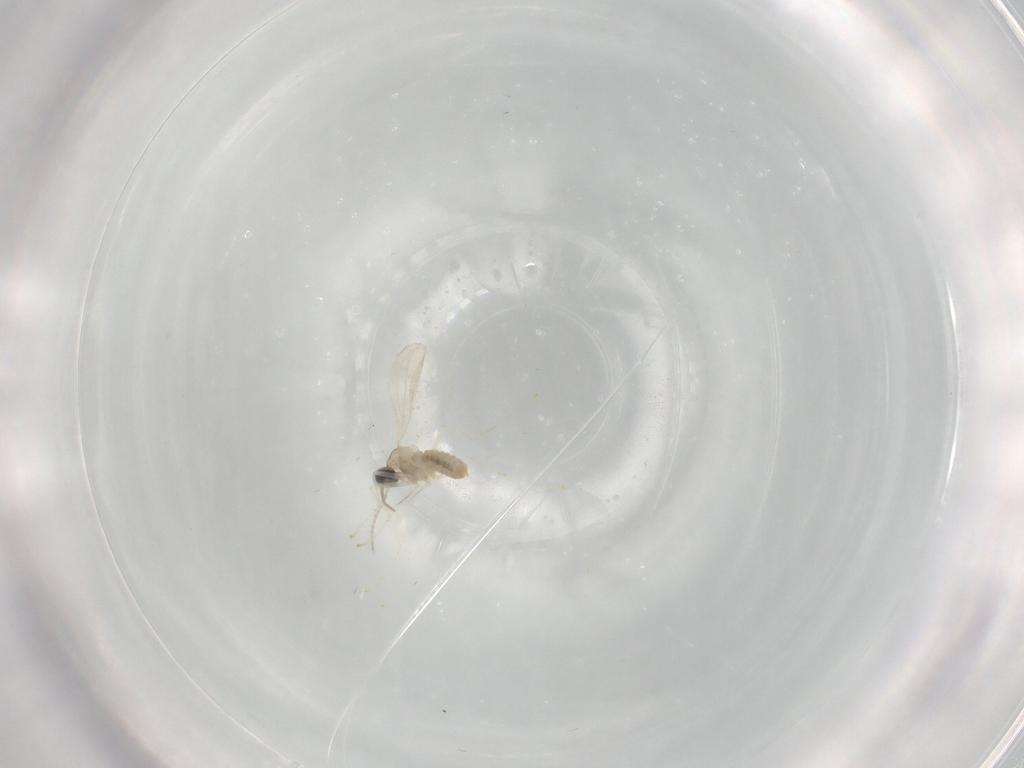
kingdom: Animalia
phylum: Arthropoda
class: Insecta
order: Diptera
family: Cecidomyiidae
